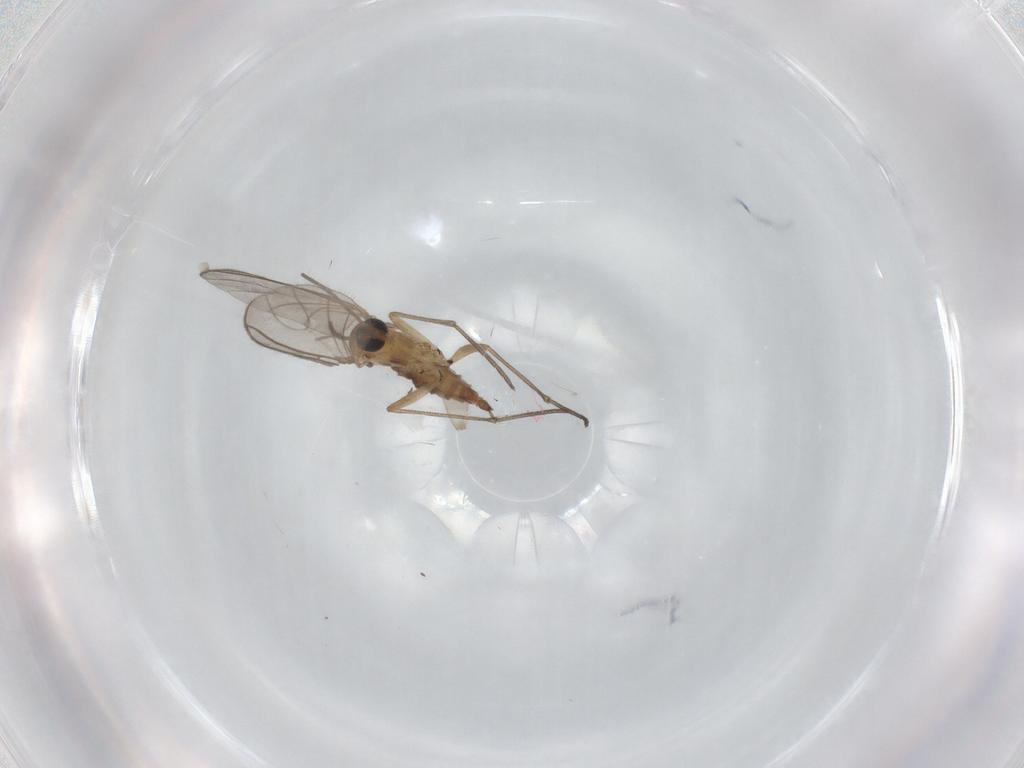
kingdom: Animalia
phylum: Arthropoda
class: Insecta
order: Diptera
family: Sciaridae
